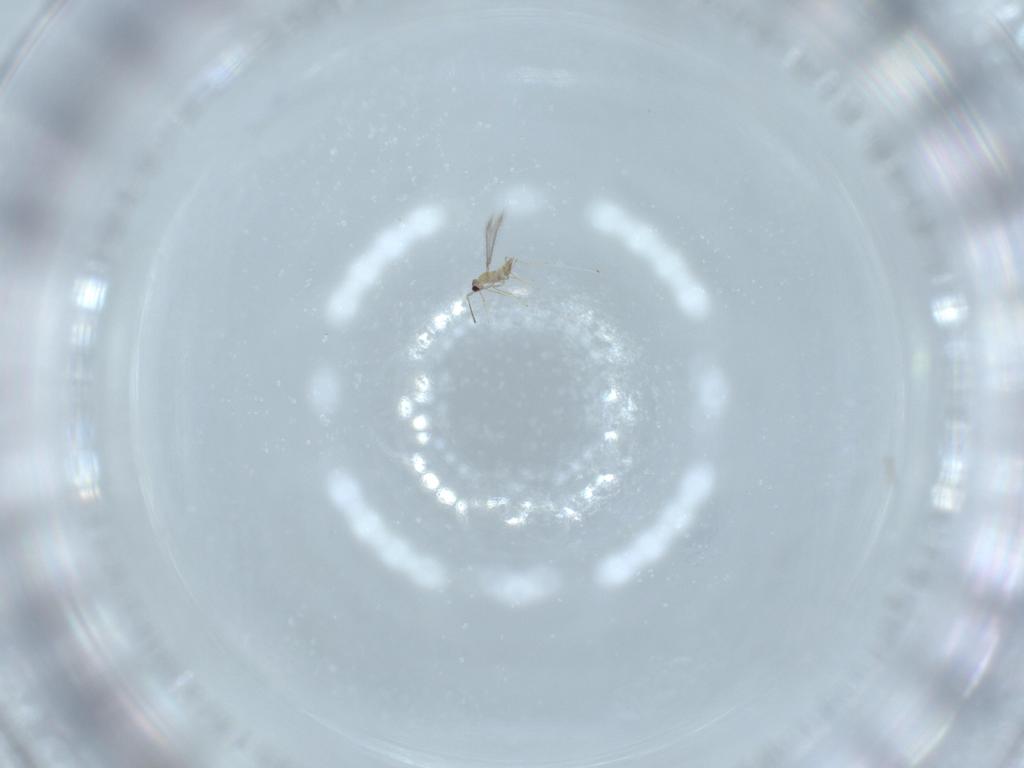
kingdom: Animalia
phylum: Arthropoda
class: Insecta
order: Hymenoptera
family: Mymaridae
